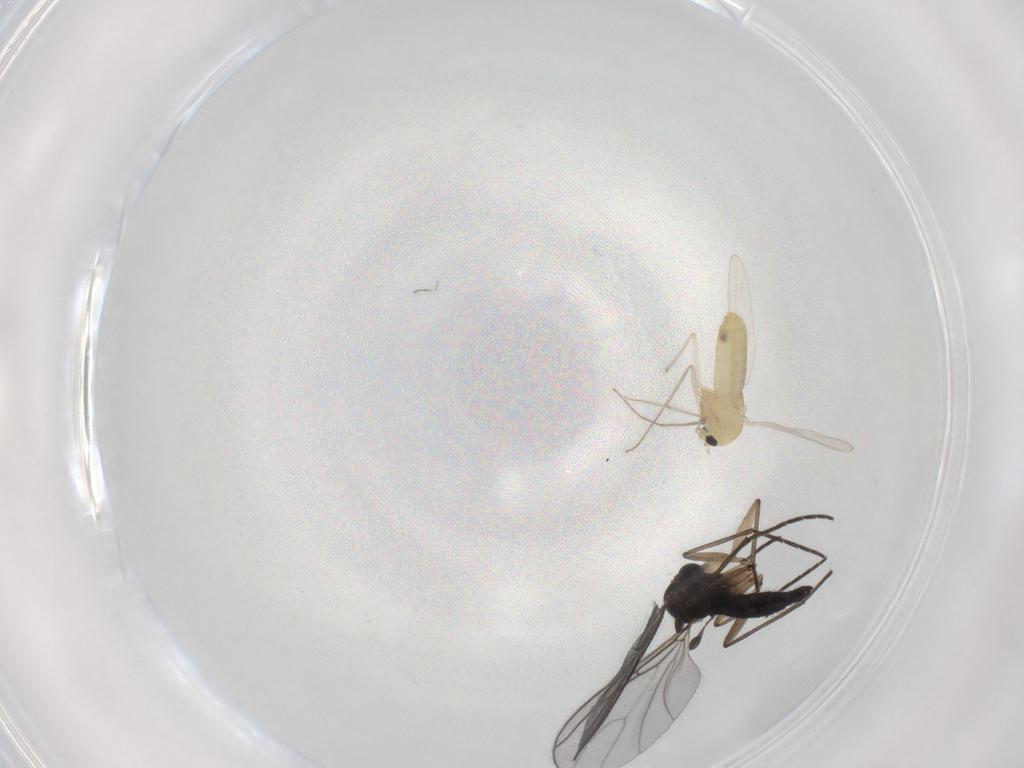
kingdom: Animalia
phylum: Arthropoda
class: Insecta
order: Diptera
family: Chironomidae
